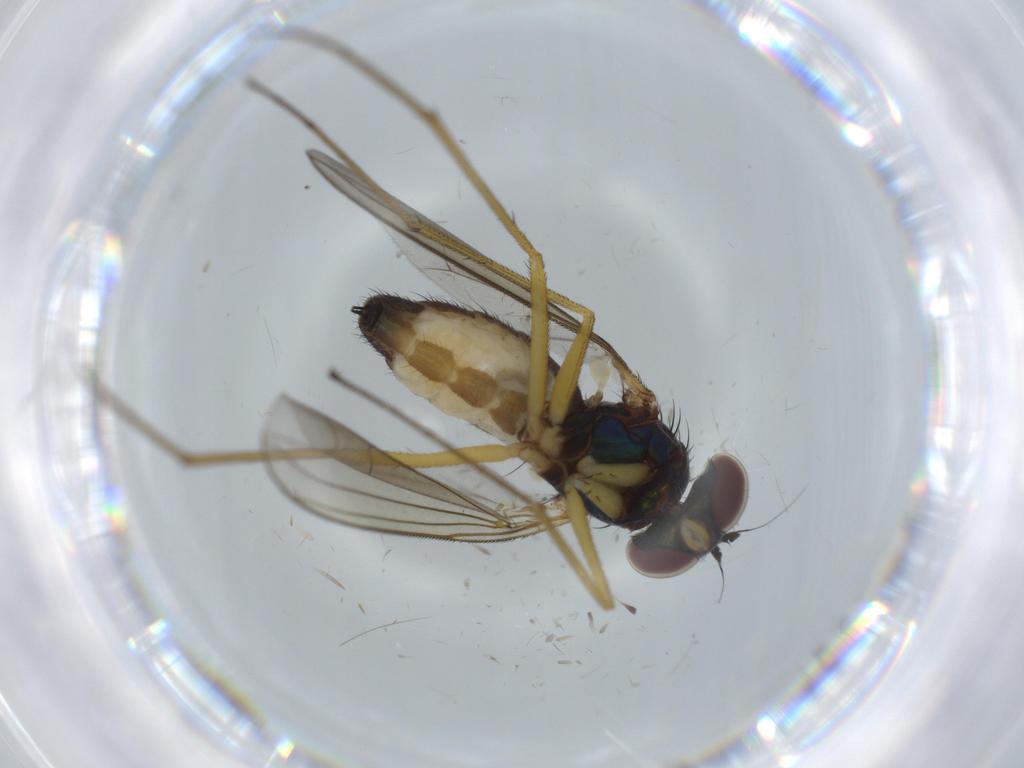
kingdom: Animalia
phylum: Arthropoda
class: Insecta
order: Diptera
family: Dolichopodidae
